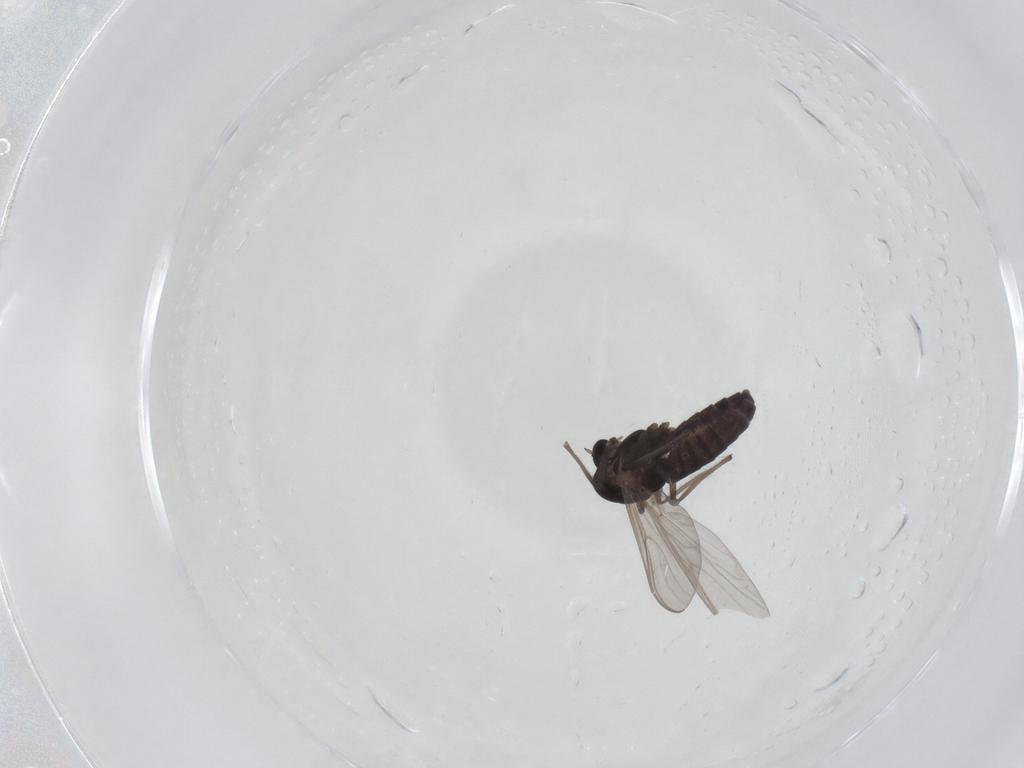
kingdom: Animalia
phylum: Arthropoda
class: Insecta
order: Diptera
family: Chironomidae
